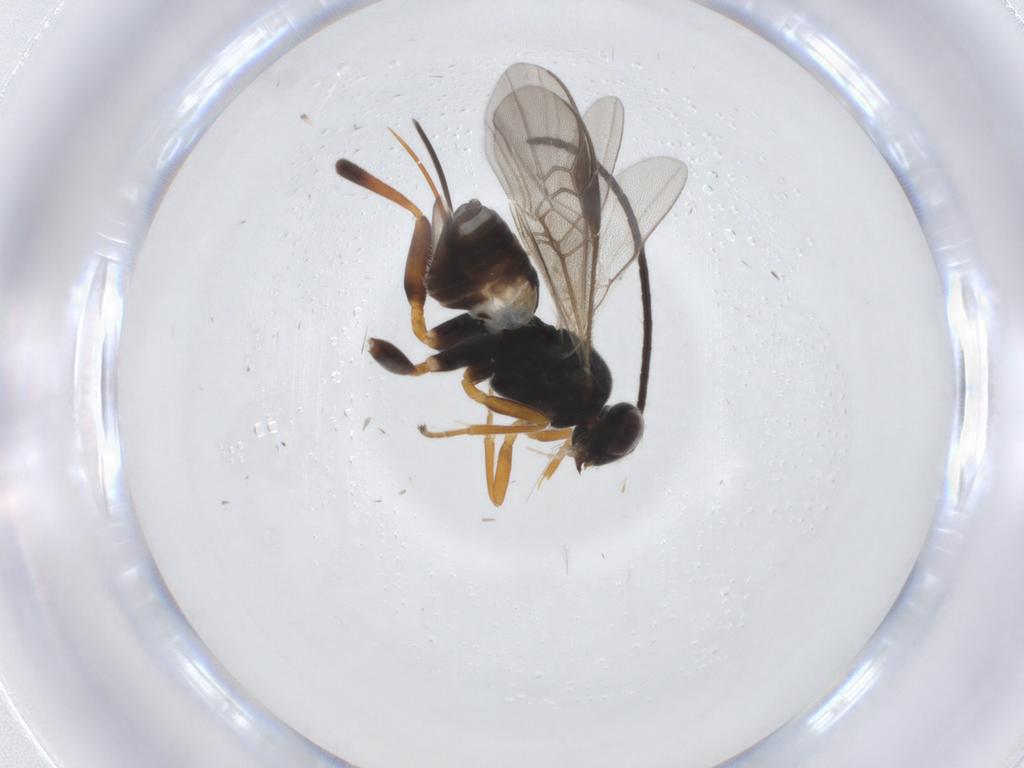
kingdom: Animalia
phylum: Arthropoda
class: Insecta
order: Hymenoptera
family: Braconidae
